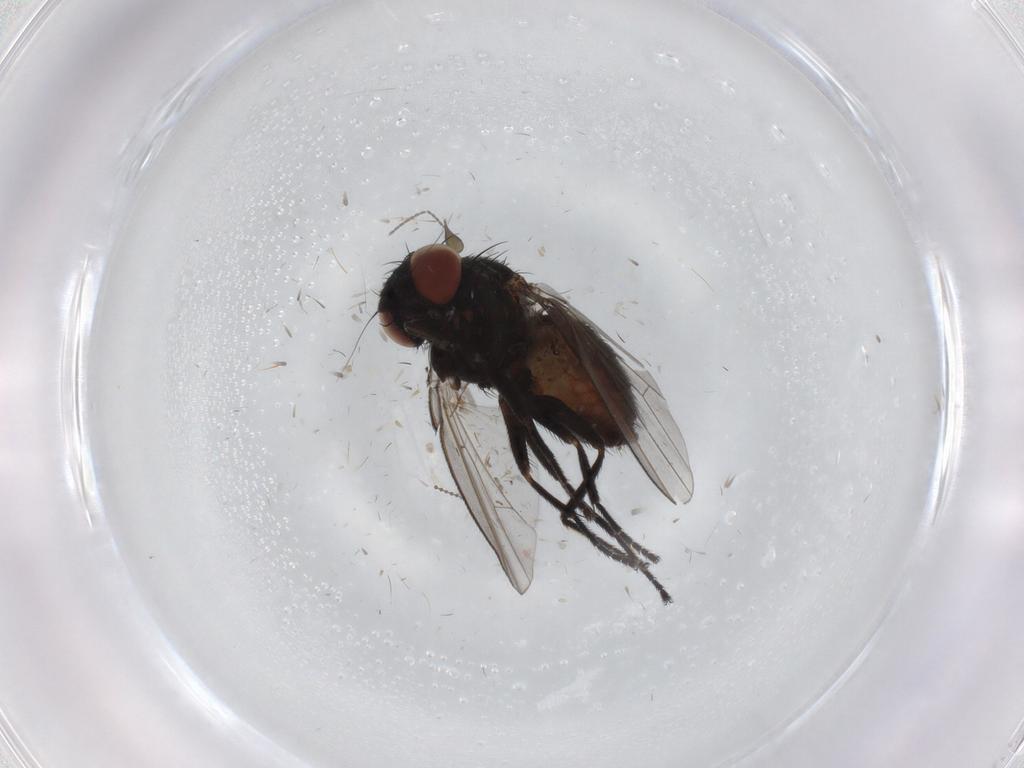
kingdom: Animalia
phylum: Arthropoda
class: Insecta
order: Diptera
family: Milichiidae
